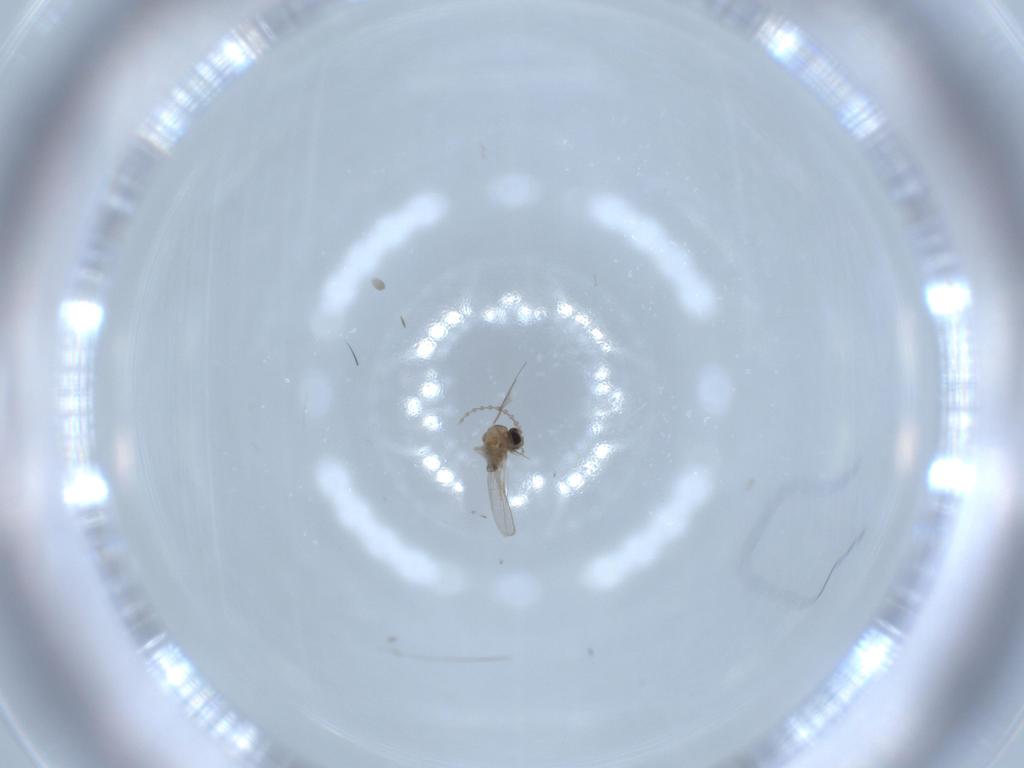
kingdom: Animalia
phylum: Arthropoda
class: Insecta
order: Diptera
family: Cecidomyiidae
